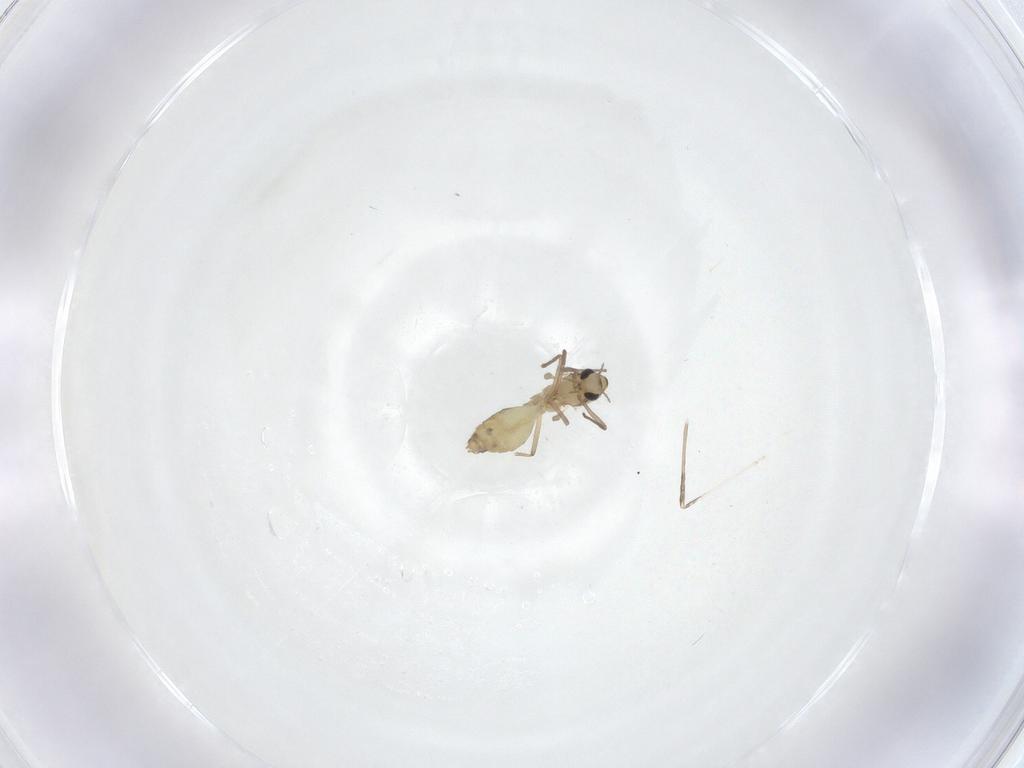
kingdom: Animalia
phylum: Arthropoda
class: Insecta
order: Diptera
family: Cecidomyiidae
